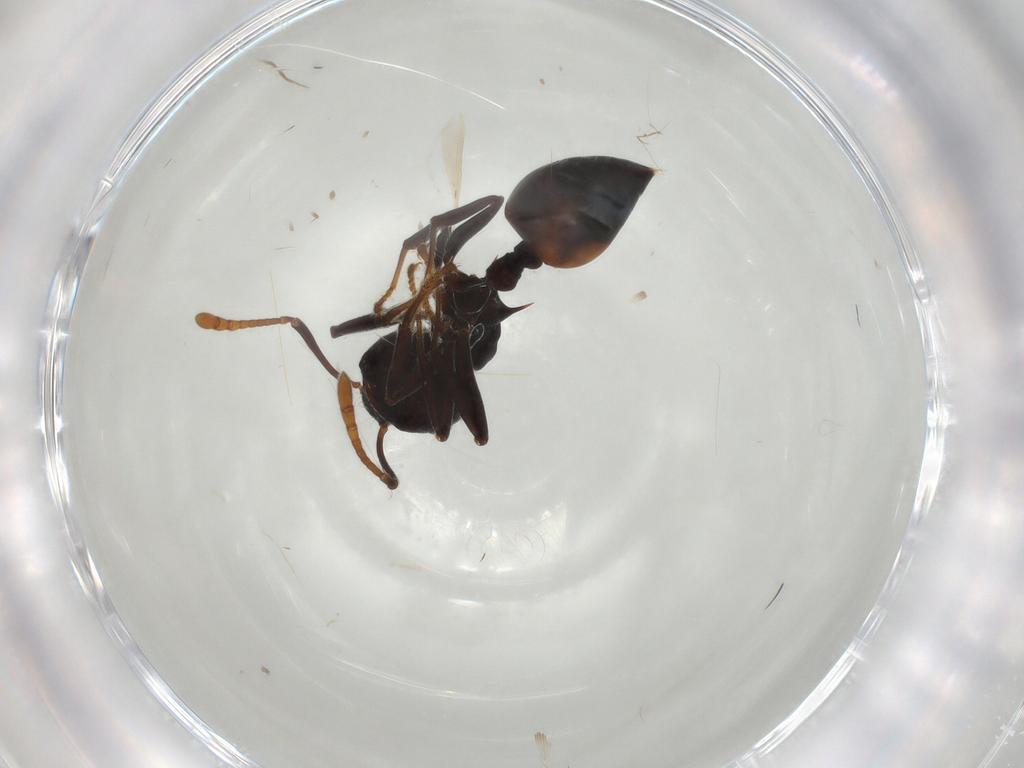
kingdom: Animalia
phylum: Arthropoda
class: Insecta
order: Hymenoptera
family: Formicidae
